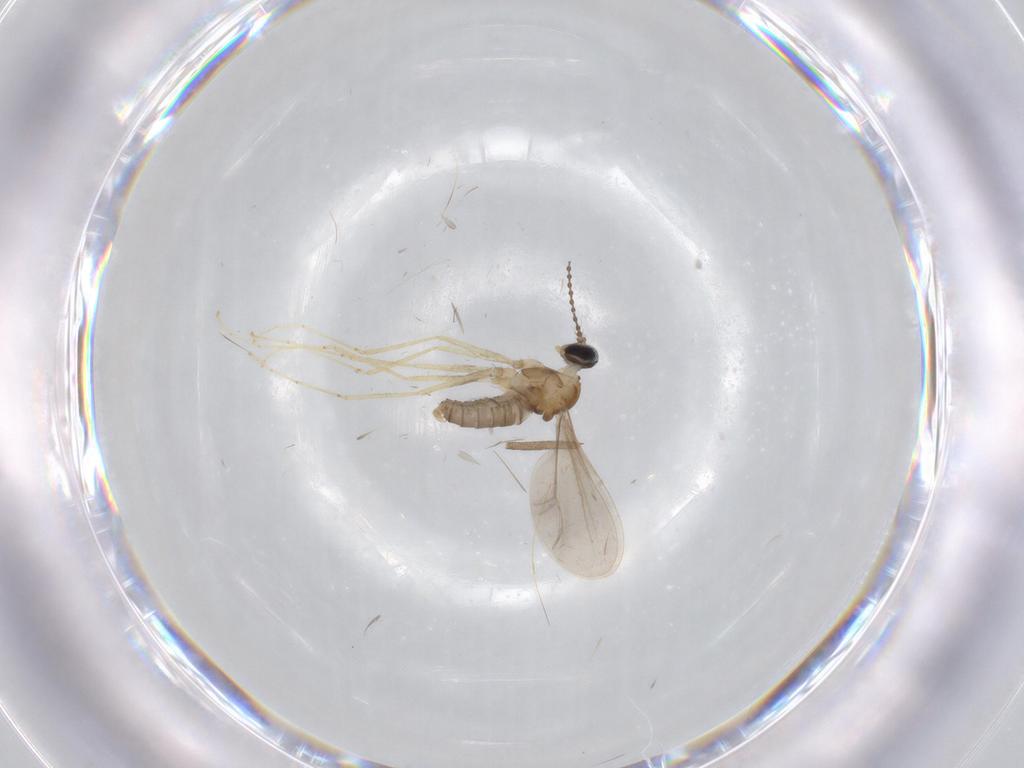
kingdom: Animalia
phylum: Arthropoda
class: Insecta
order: Diptera
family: Cecidomyiidae
